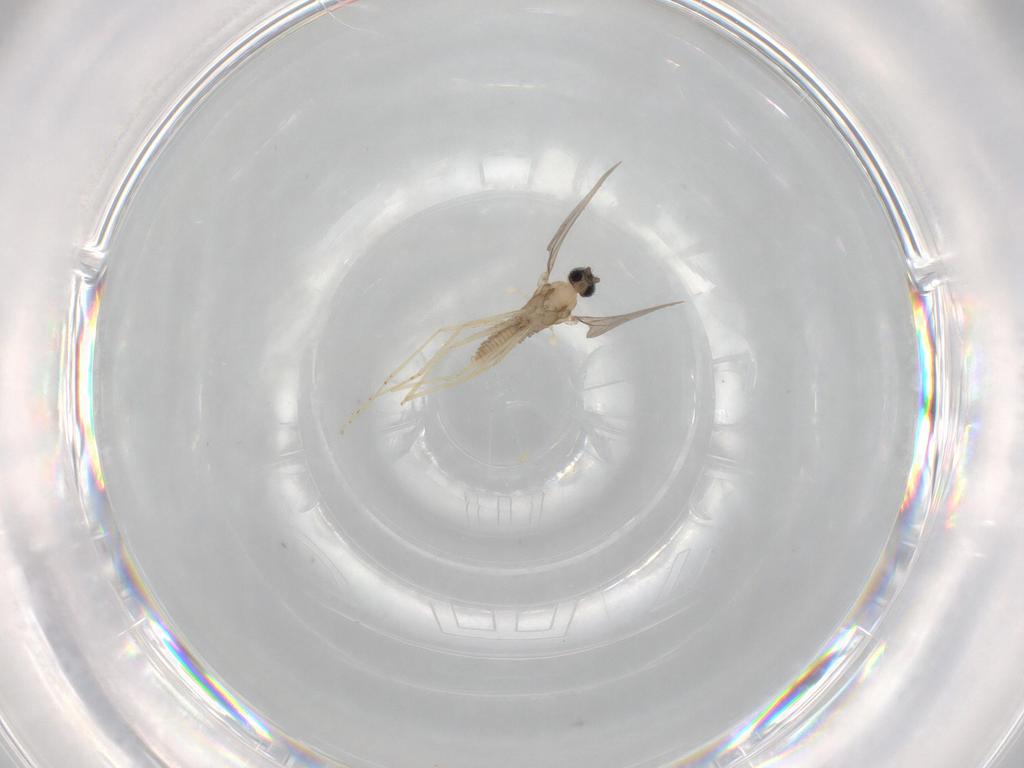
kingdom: Animalia
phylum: Arthropoda
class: Insecta
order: Diptera
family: Cecidomyiidae
